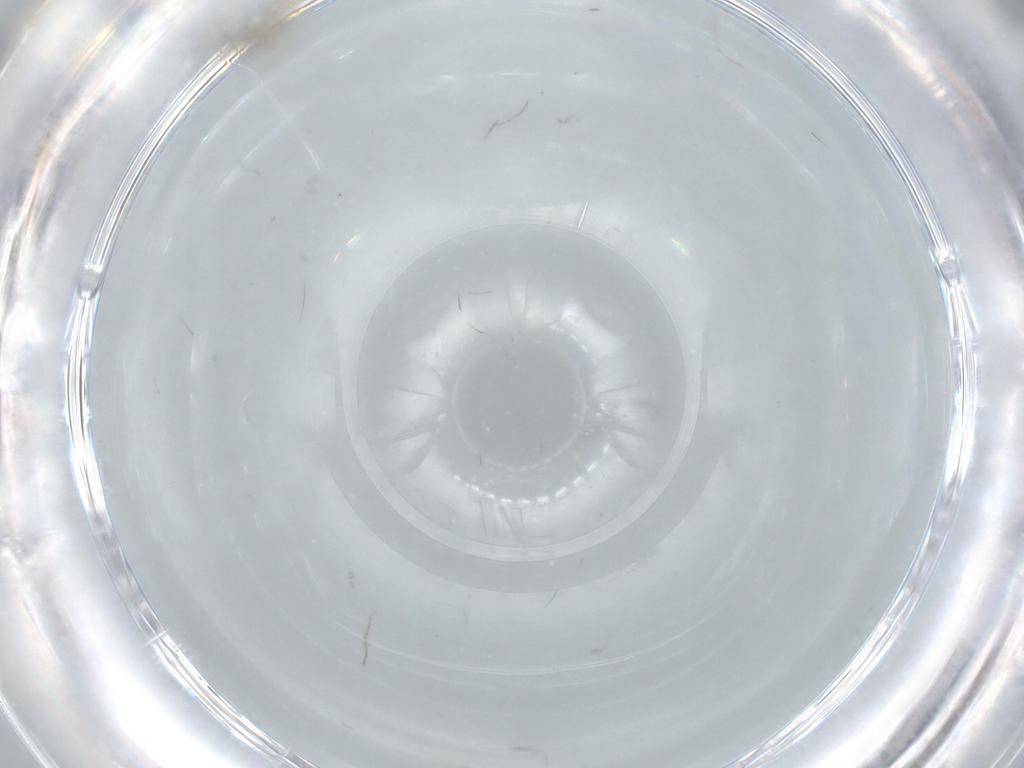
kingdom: Animalia
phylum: Arthropoda
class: Insecta
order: Diptera
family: Cecidomyiidae
